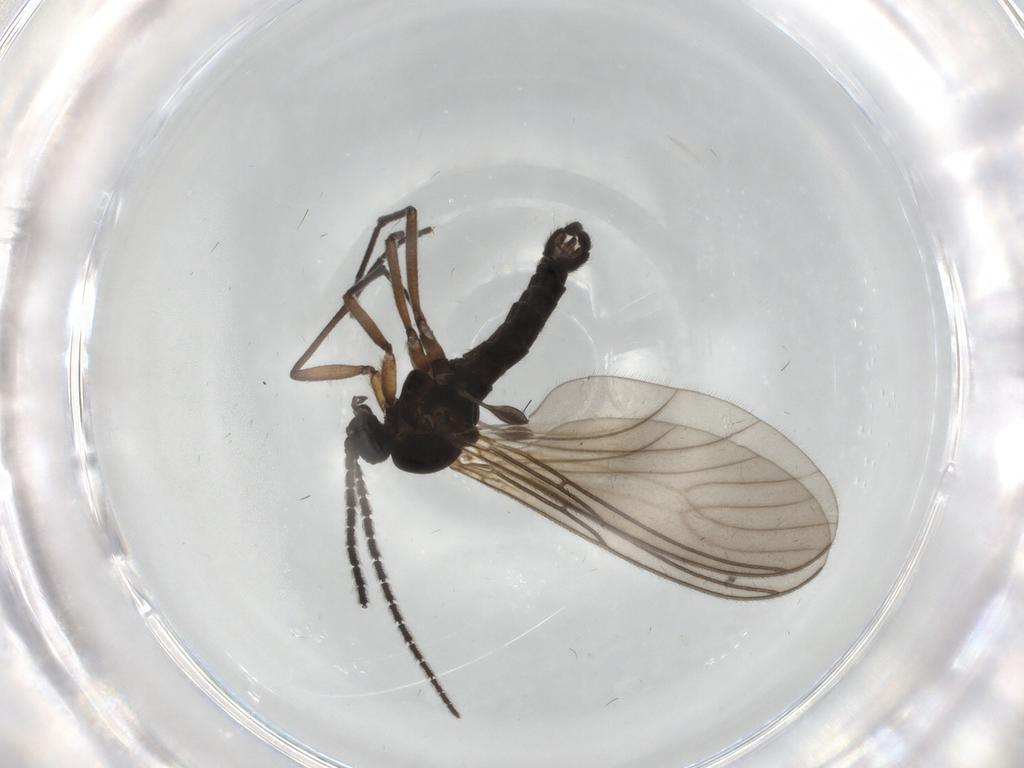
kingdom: Animalia
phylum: Arthropoda
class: Insecta
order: Diptera
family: Sciaridae
